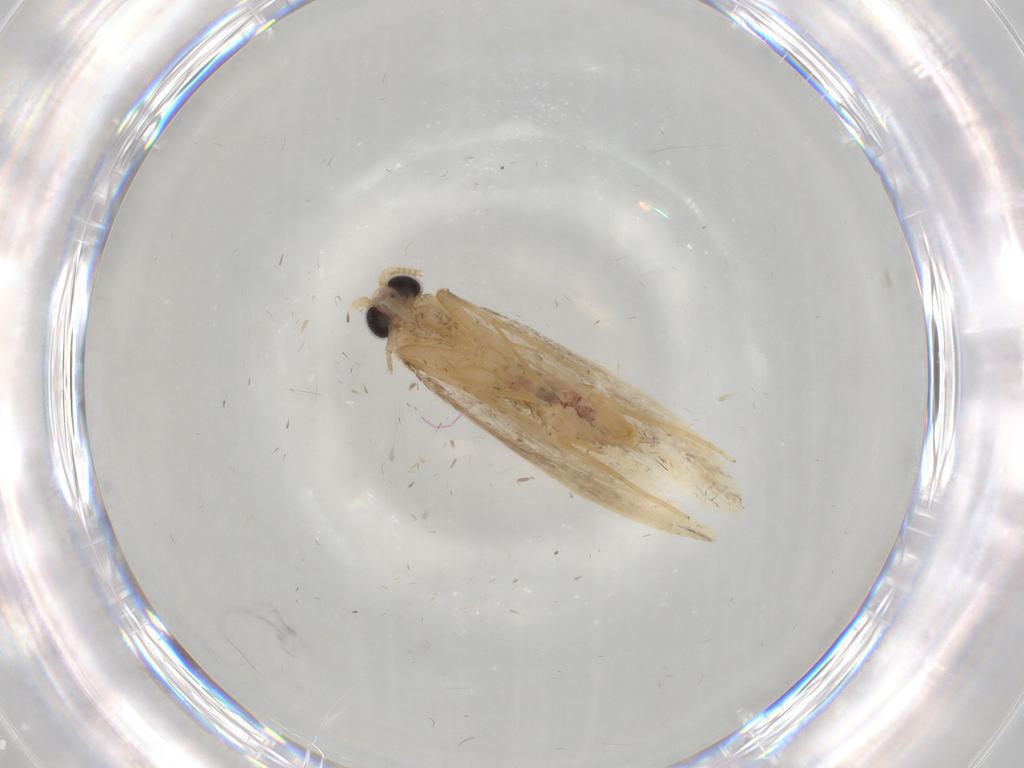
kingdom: Animalia
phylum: Arthropoda
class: Insecta
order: Lepidoptera
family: Nepticulidae
